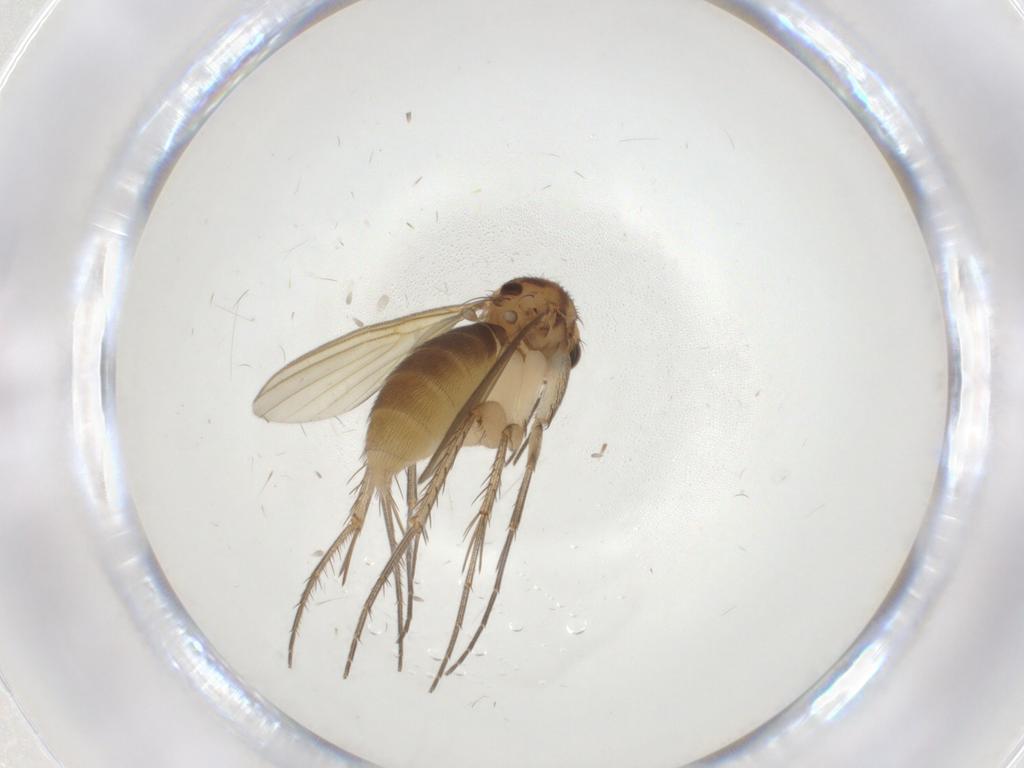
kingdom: Animalia
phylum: Arthropoda
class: Insecta
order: Diptera
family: Mycetophilidae
